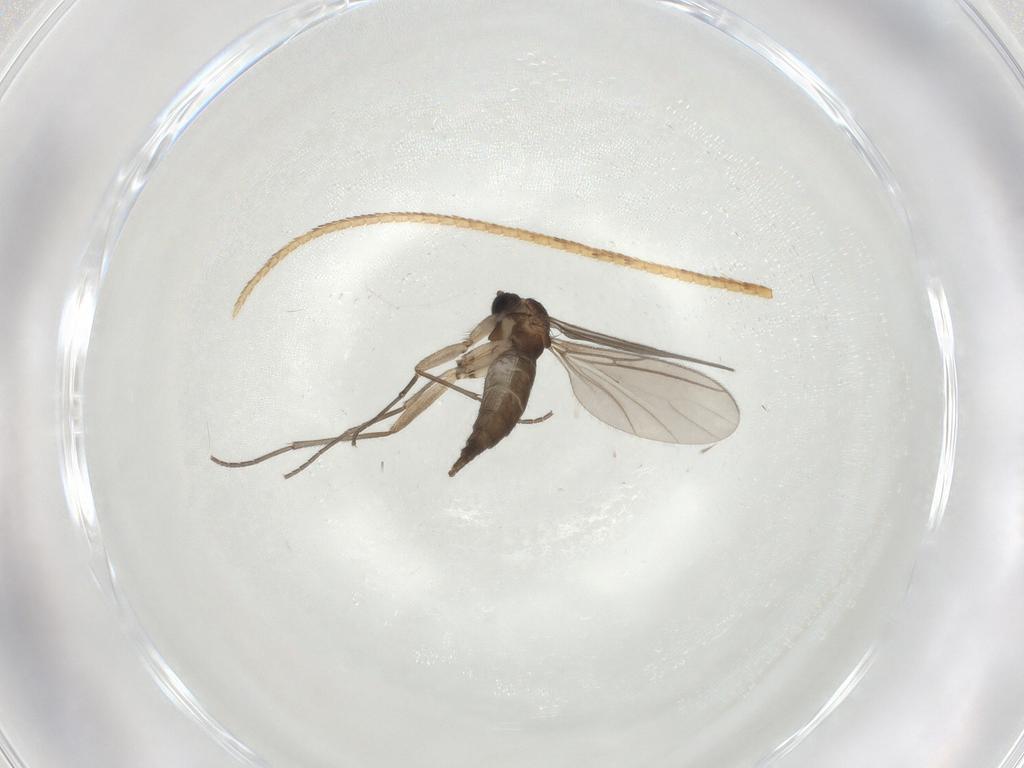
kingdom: Animalia
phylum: Arthropoda
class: Insecta
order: Diptera
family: Sciaridae
